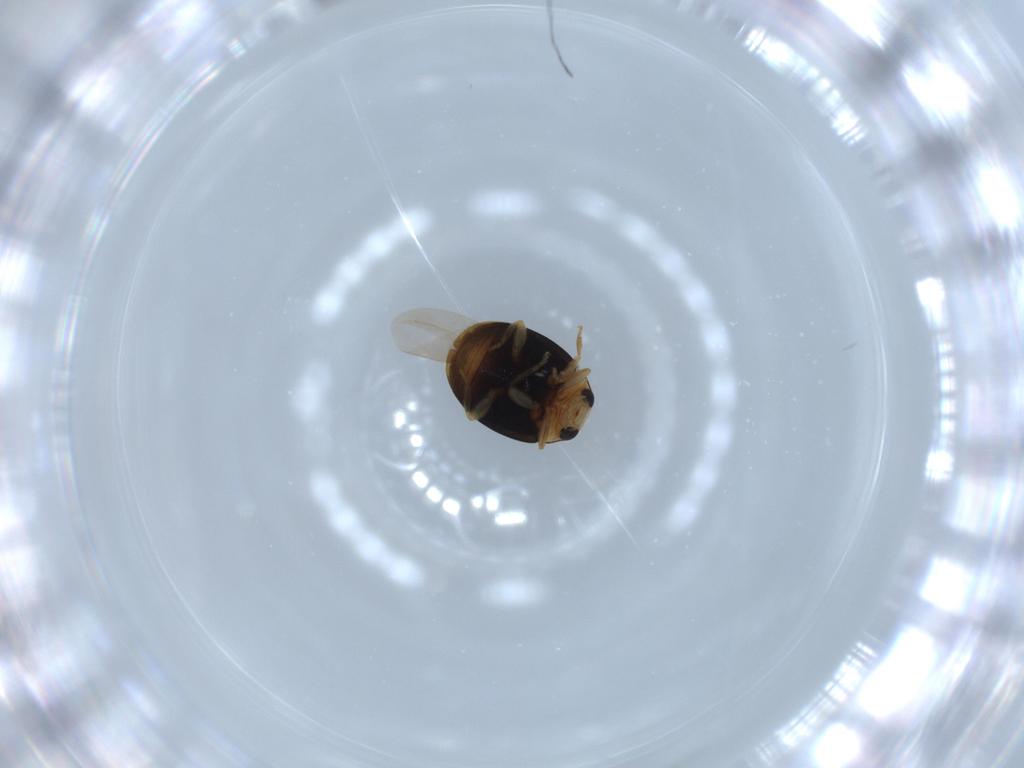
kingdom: Animalia
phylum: Arthropoda
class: Insecta
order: Coleoptera
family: Coccinellidae
